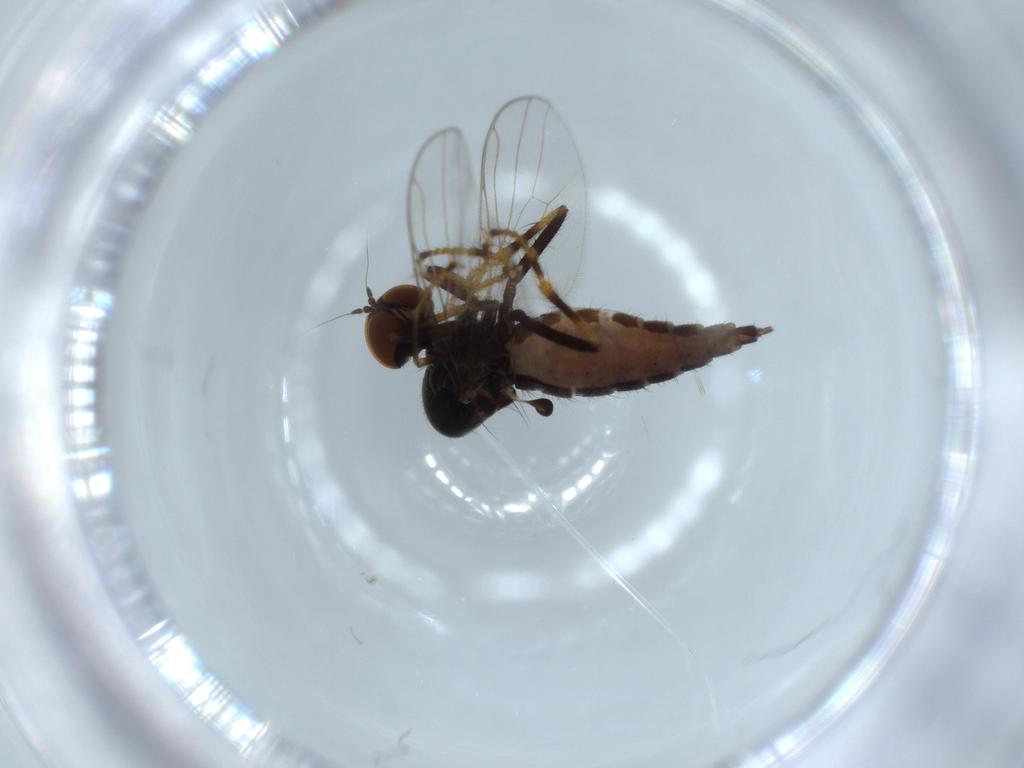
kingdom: Animalia
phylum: Arthropoda
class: Insecta
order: Diptera
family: Hybotidae
